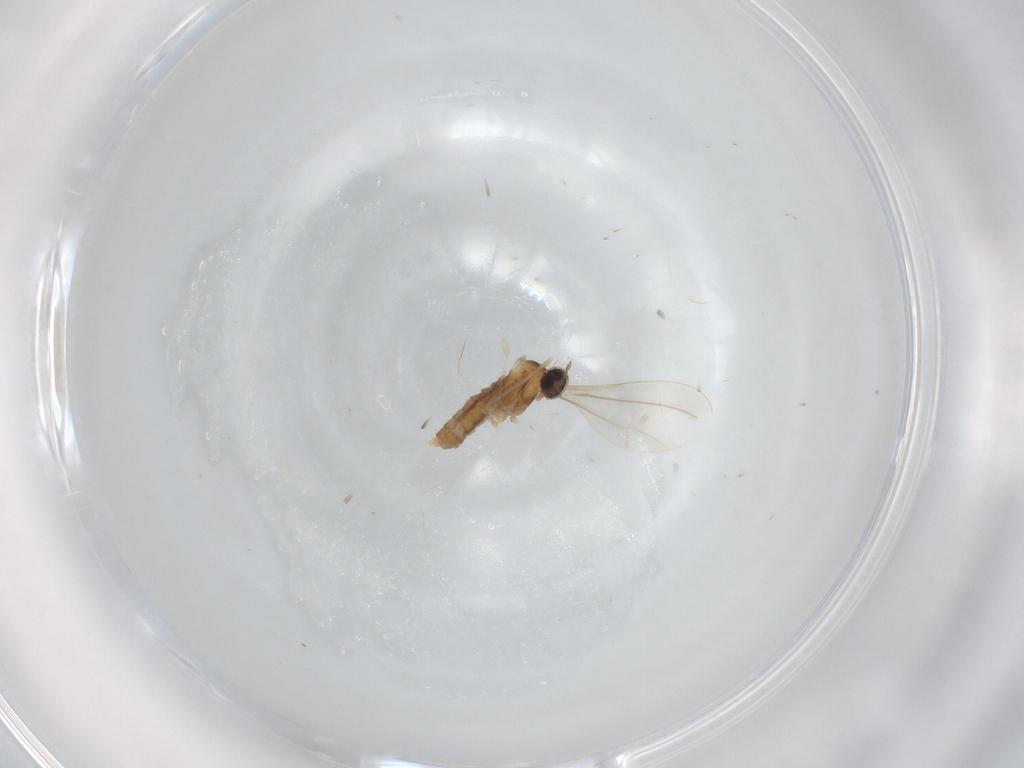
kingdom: Animalia
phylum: Arthropoda
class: Insecta
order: Diptera
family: Cecidomyiidae
